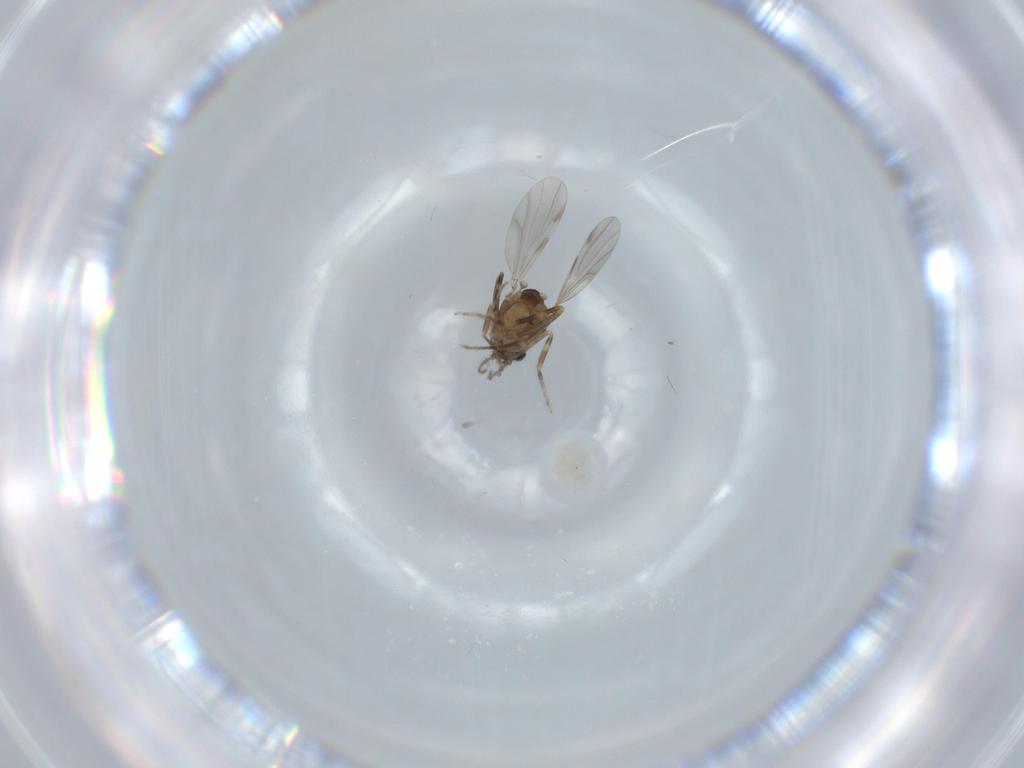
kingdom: Animalia
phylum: Arthropoda
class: Insecta
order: Diptera
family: Ceratopogonidae
